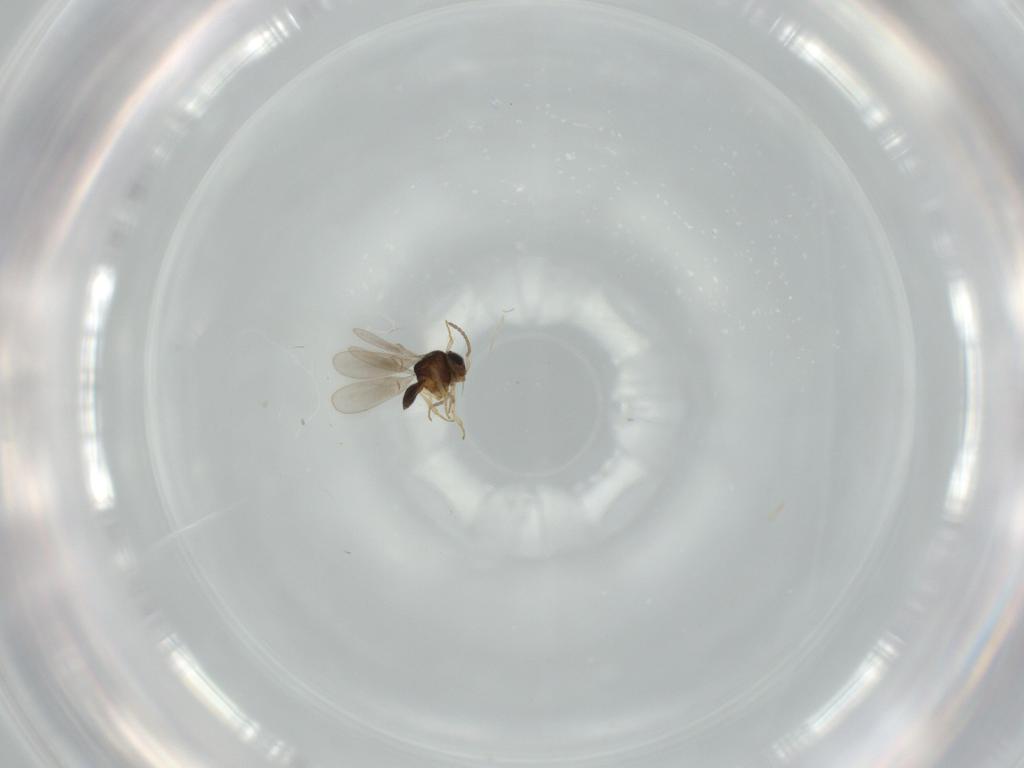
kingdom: Animalia
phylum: Arthropoda
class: Insecta
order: Hymenoptera
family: Scelionidae
